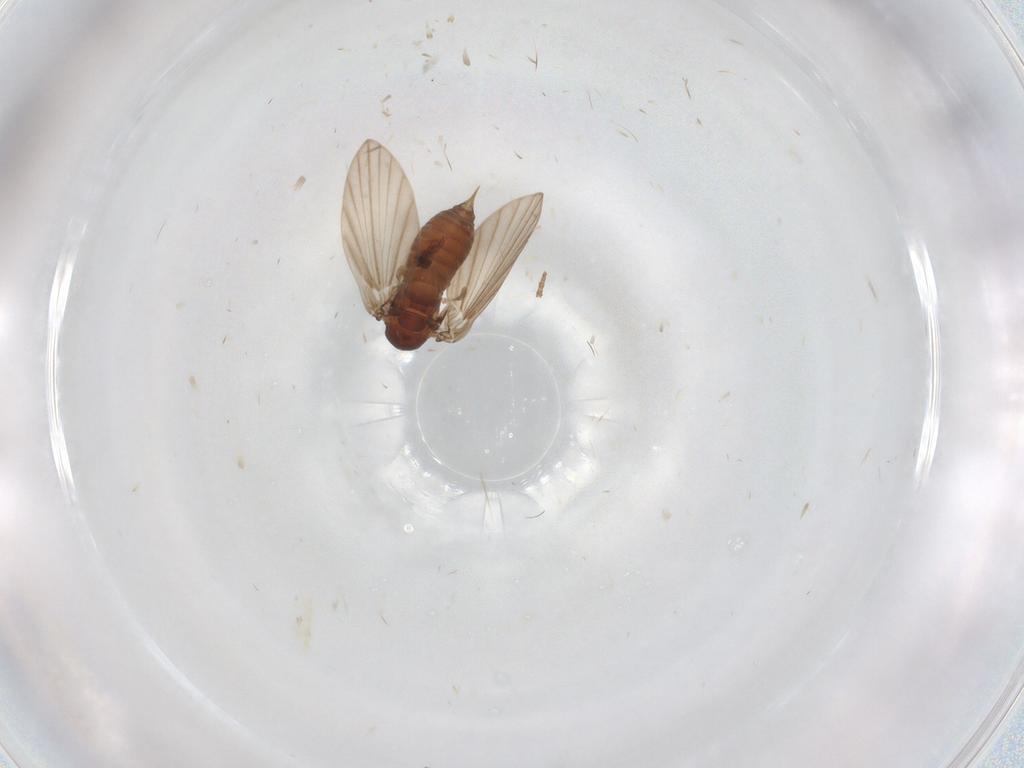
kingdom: Animalia
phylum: Arthropoda
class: Insecta
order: Diptera
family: Psychodidae
